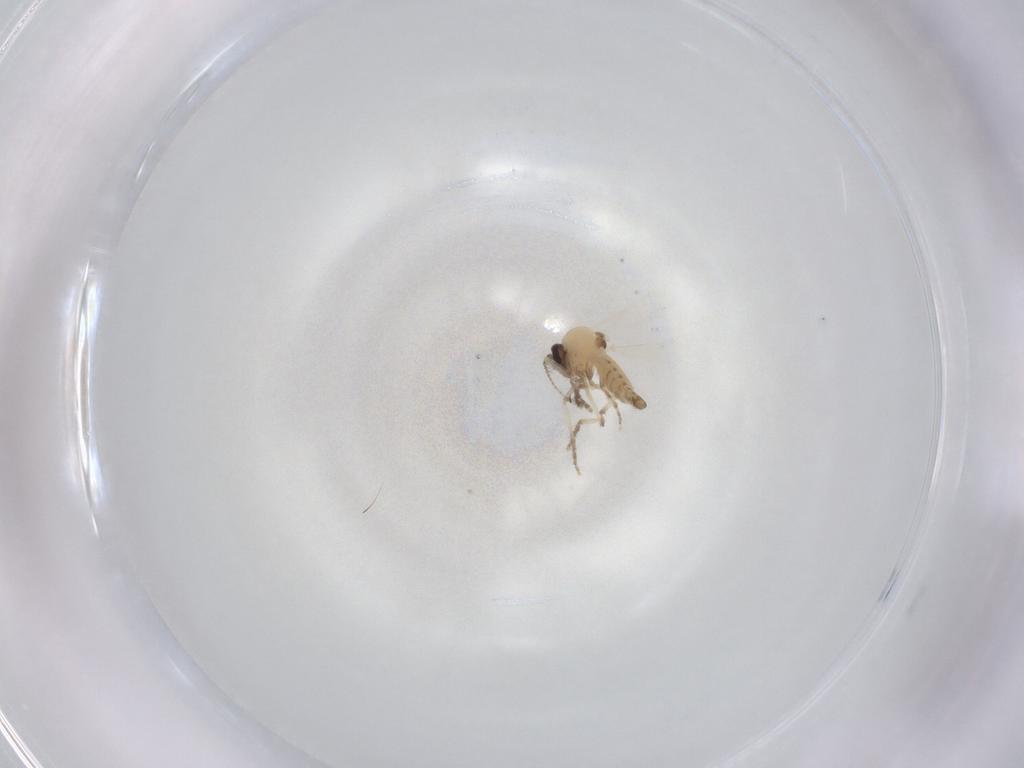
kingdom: Animalia
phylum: Arthropoda
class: Insecta
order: Diptera
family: Ceratopogonidae
